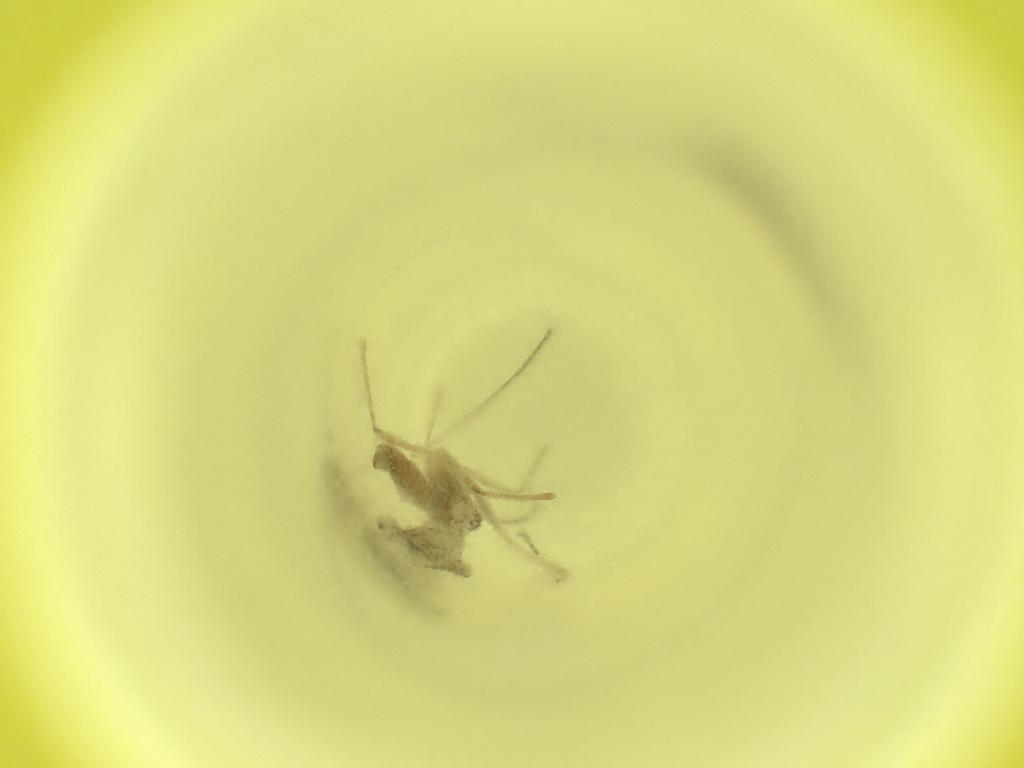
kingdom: Animalia
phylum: Arthropoda
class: Insecta
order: Diptera
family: Cecidomyiidae
